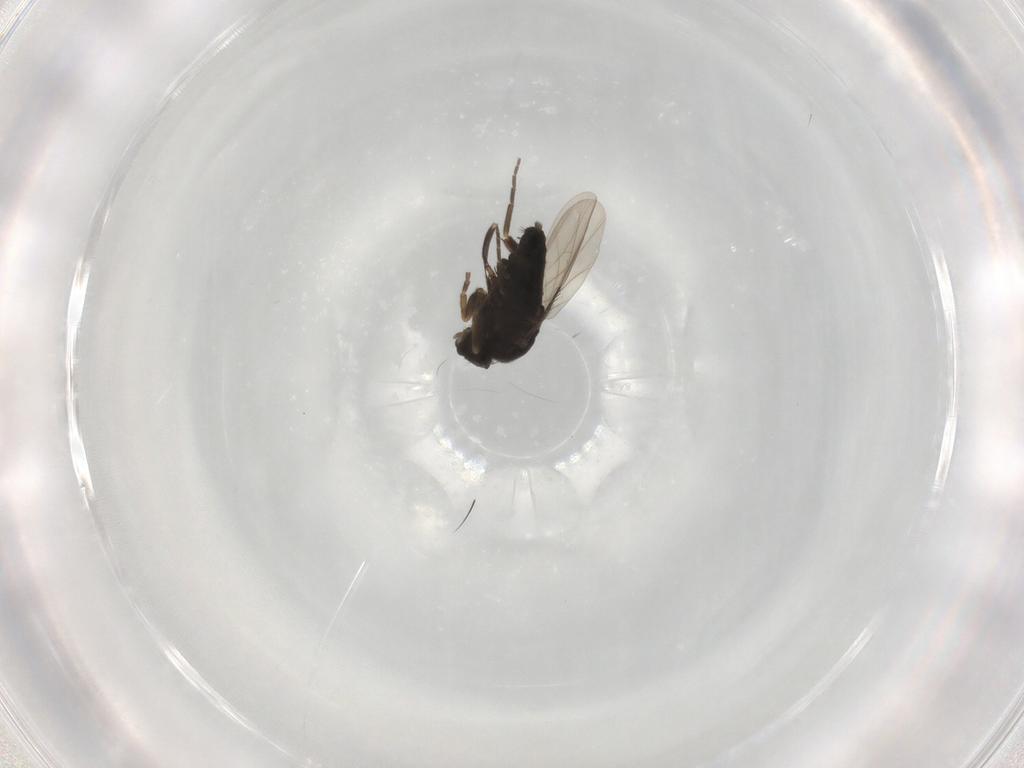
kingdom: Animalia
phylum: Arthropoda
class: Insecta
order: Diptera
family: Phoridae
